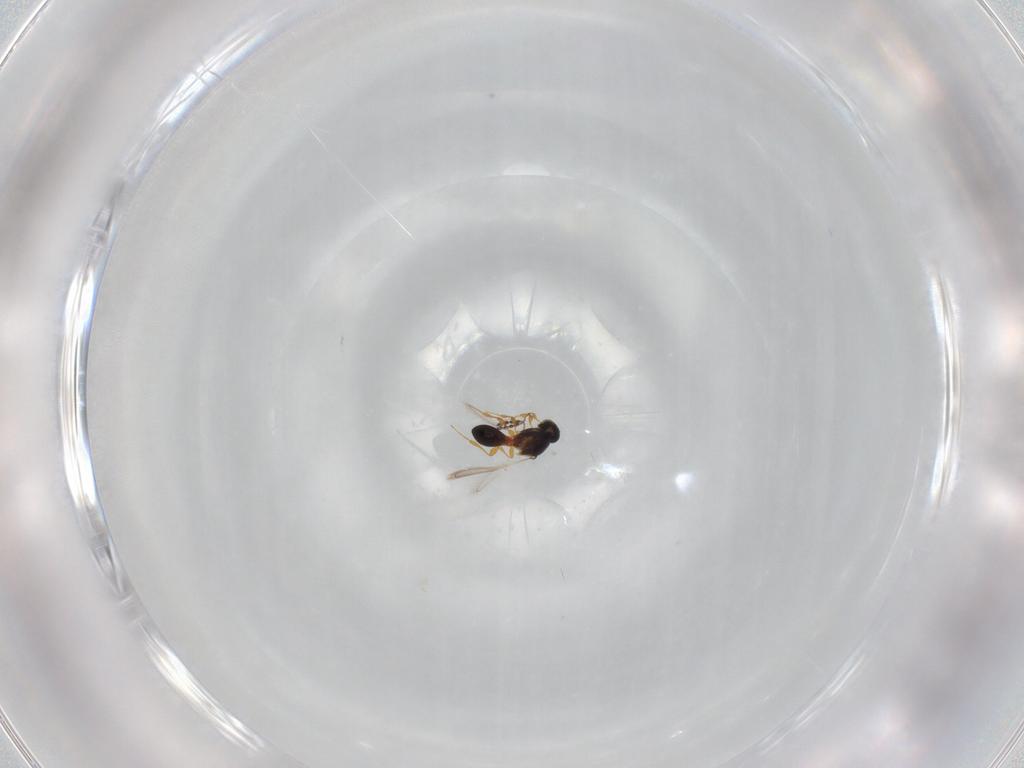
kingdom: Animalia
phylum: Arthropoda
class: Insecta
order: Hymenoptera
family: Platygastridae
